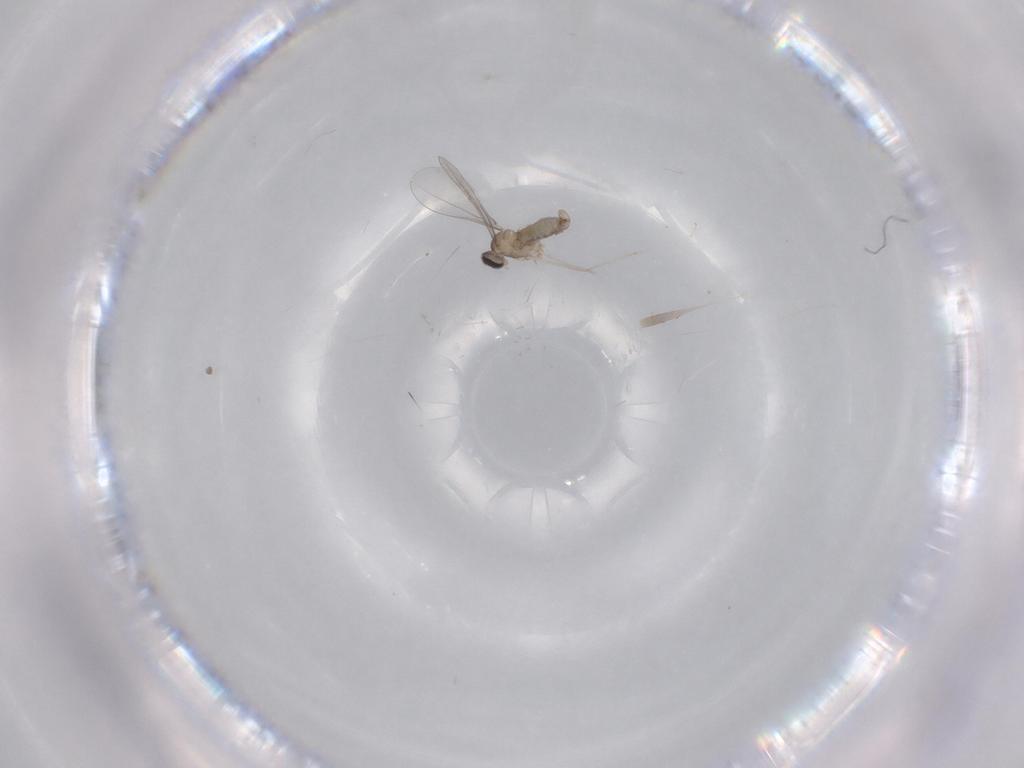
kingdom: Animalia
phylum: Arthropoda
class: Insecta
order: Diptera
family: Cecidomyiidae
